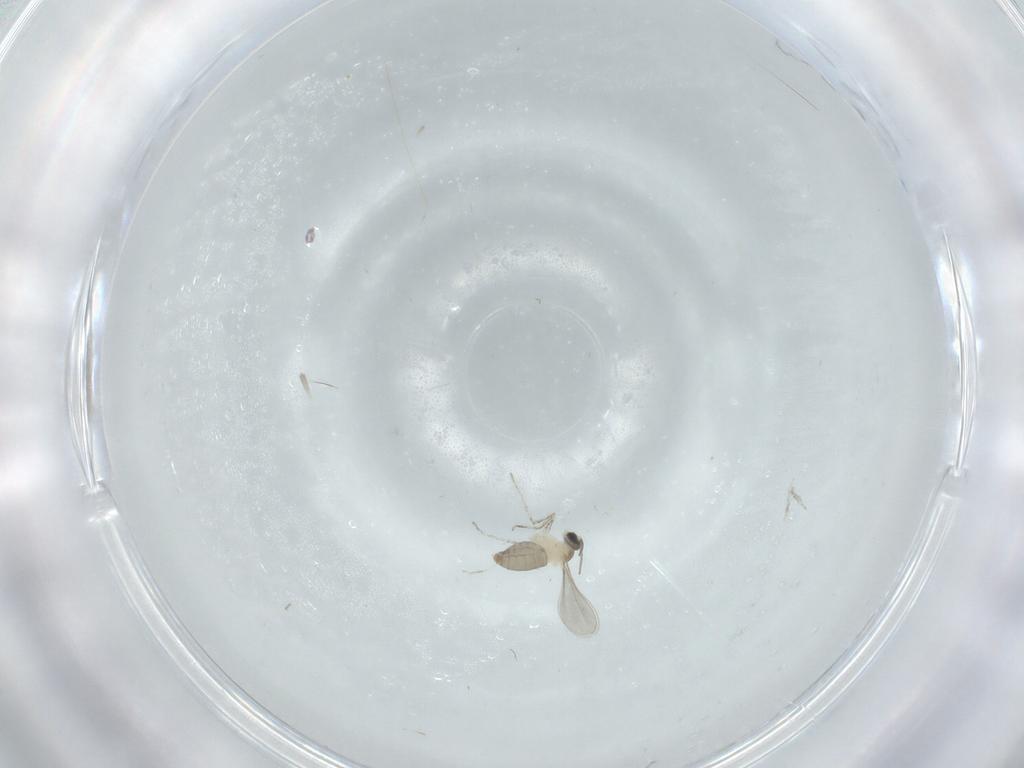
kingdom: Animalia
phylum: Arthropoda
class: Insecta
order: Diptera
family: Cecidomyiidae
